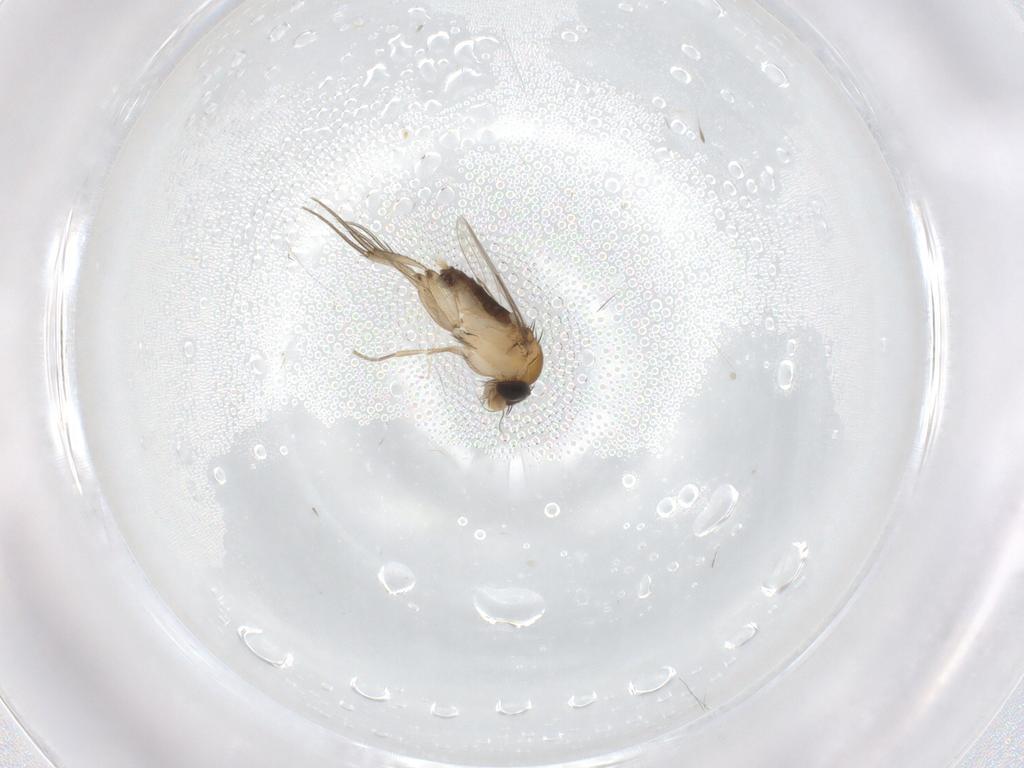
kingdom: Animalia
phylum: Arthropoda
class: Insecta
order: Diptera
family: Phoridae
